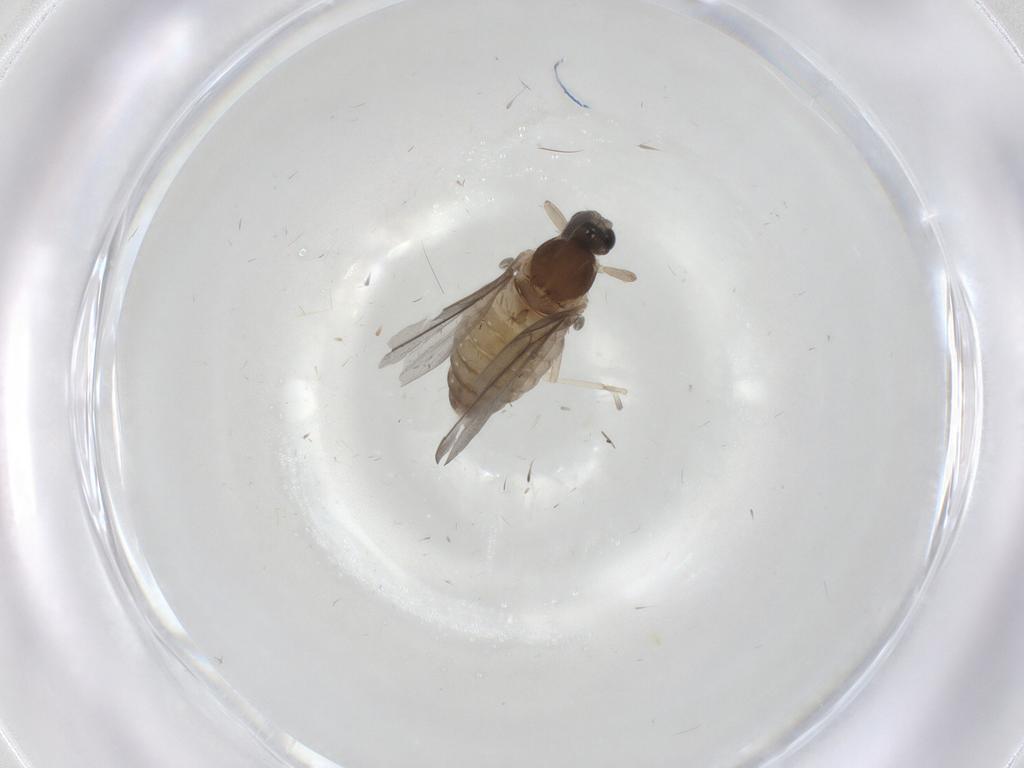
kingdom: Animalia
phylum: Arthropoda
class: Insecta
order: Diptera
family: Cecidomyiidae
